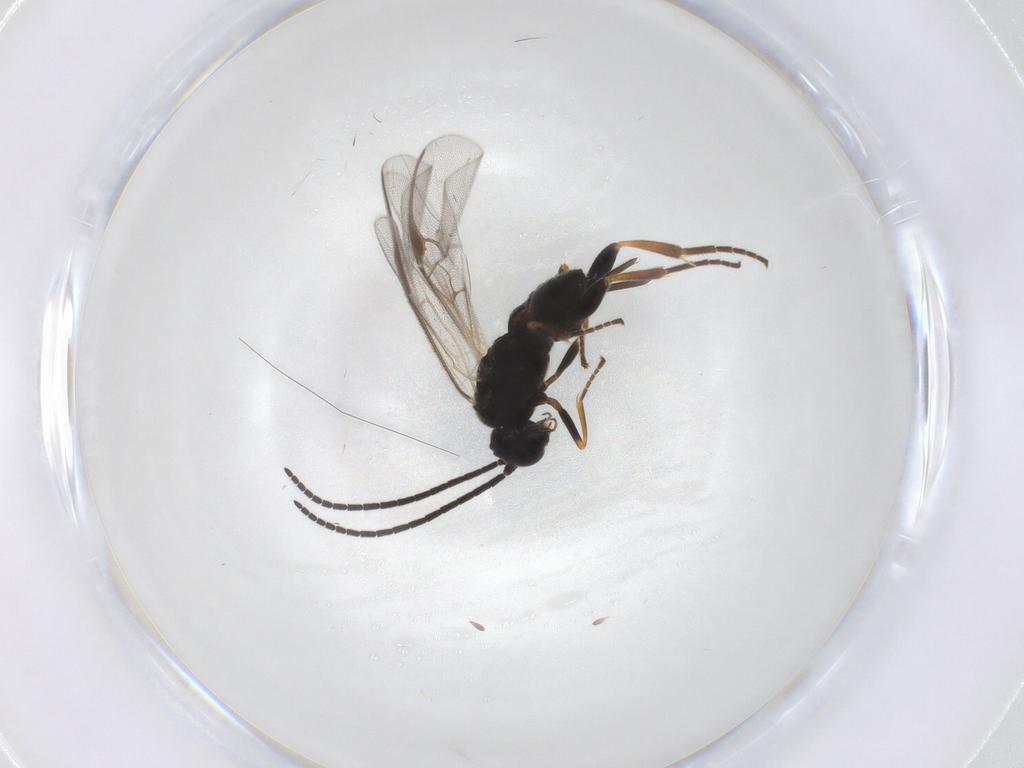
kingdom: Animalia
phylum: Arthropoda
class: Insecta
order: Hymenoptera
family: Braconidae
